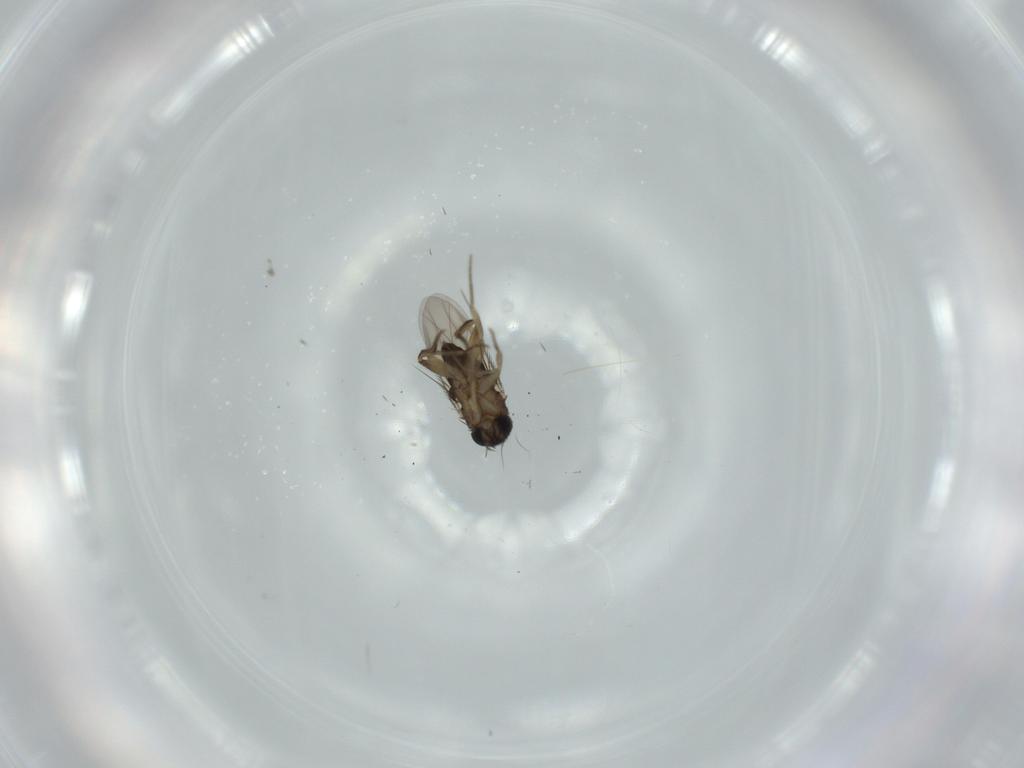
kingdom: Animalia
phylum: Arthropoda
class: Insecta
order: Diptera
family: Phoridae
